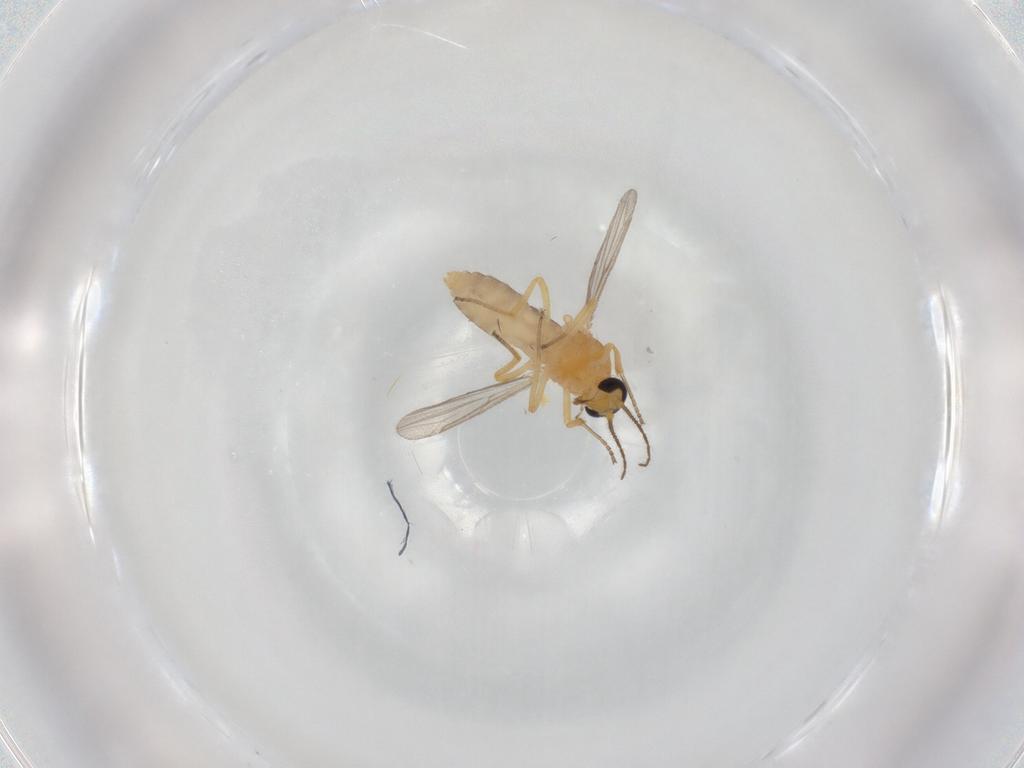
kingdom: Animalia
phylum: Arthropoda
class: Insecta
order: Diptera
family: Ceratopogonidae
